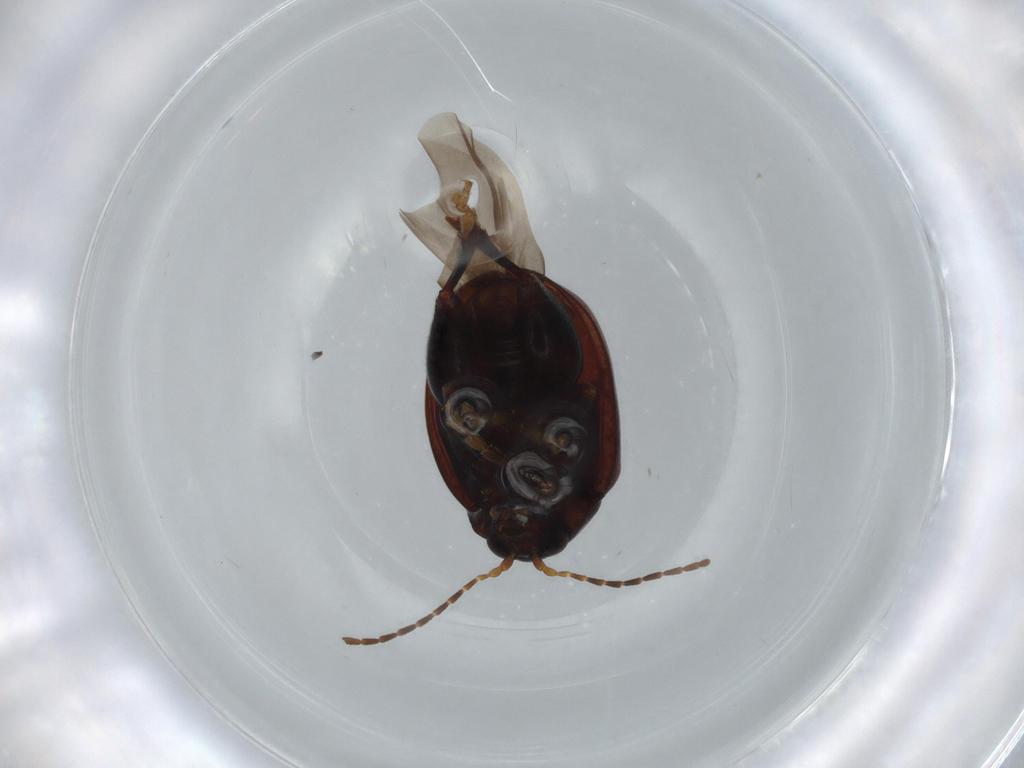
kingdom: Animalia
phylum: Arthropoda
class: Insecta
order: Coleoptera
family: Chrysomelidae
